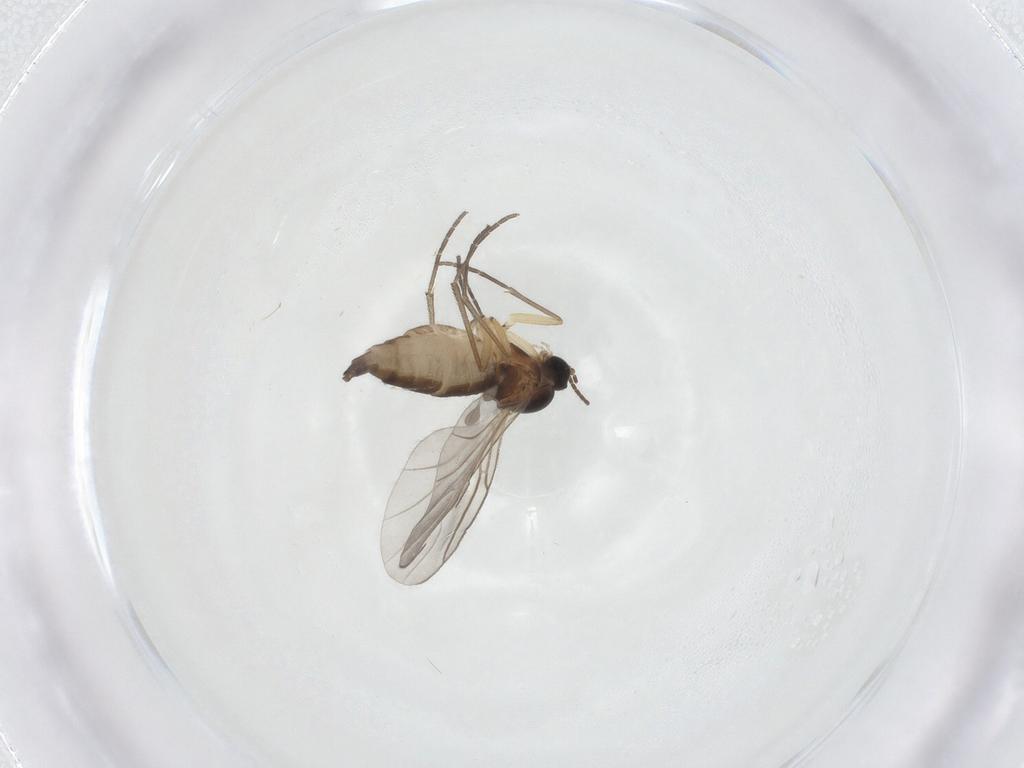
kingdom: Animalia
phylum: Arthropoda
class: Insecta
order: Diptera
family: Sciaridae
